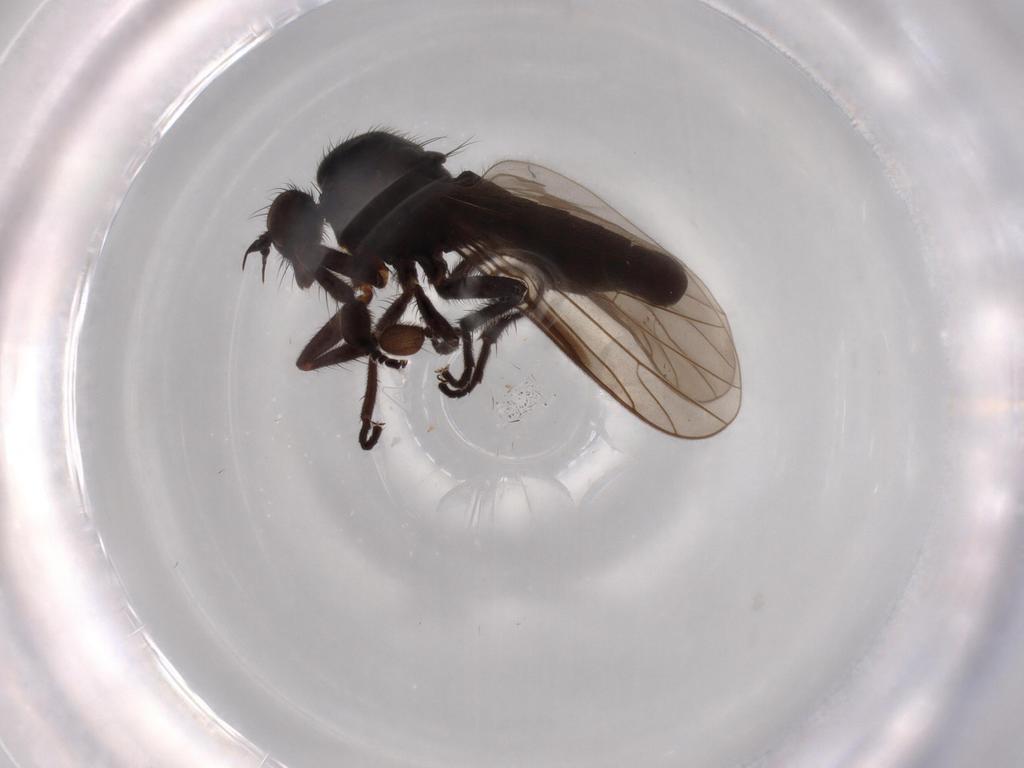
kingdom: Animalia
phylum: Arthropoda
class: Insecta
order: Diptera
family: Empididae
